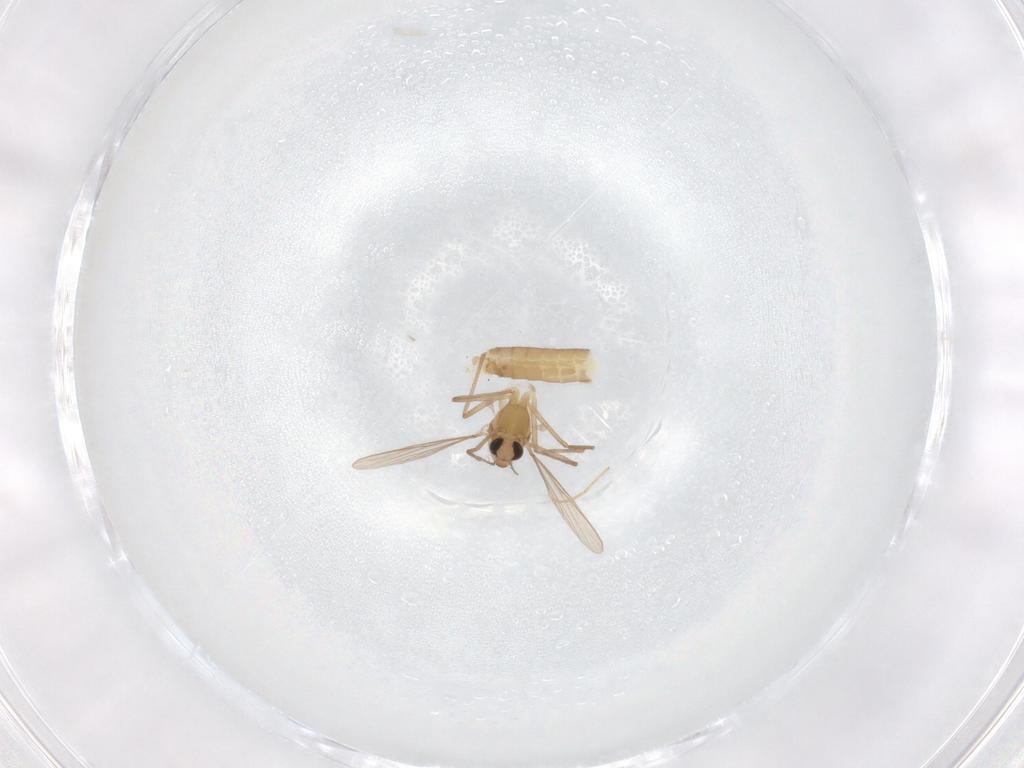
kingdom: Animalia
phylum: Arthropoda
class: Insecta
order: Diptera
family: Chironomidae
